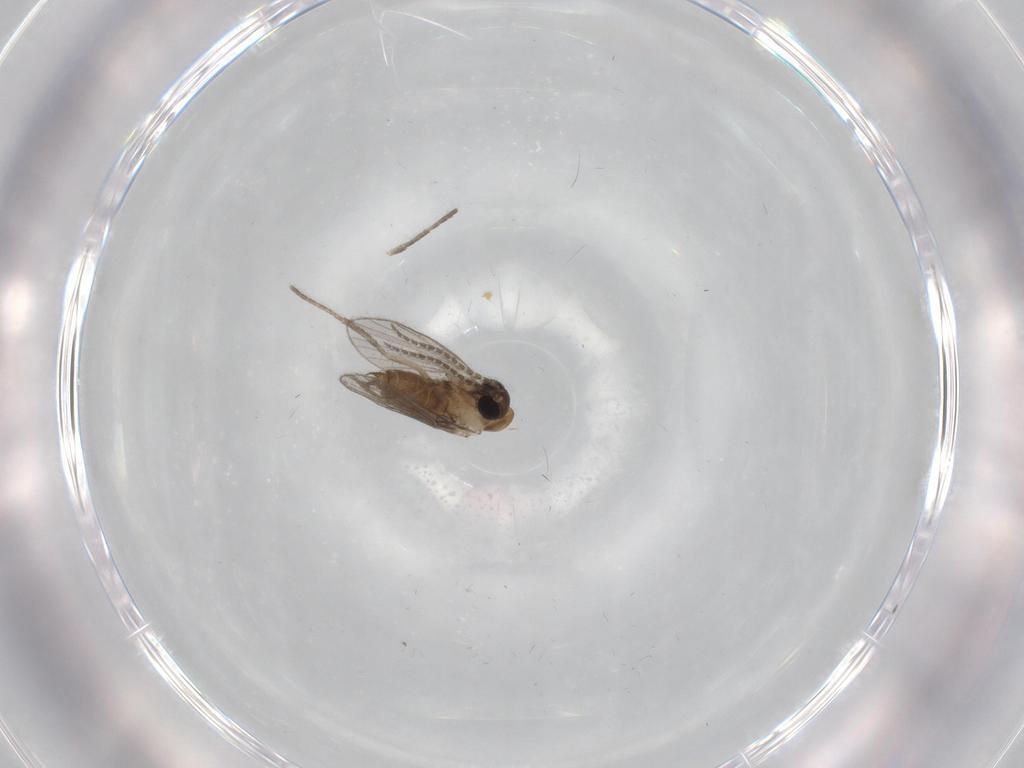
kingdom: Animalia
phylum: Arthropoda
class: Insecta
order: Diptera
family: Psychodidae
